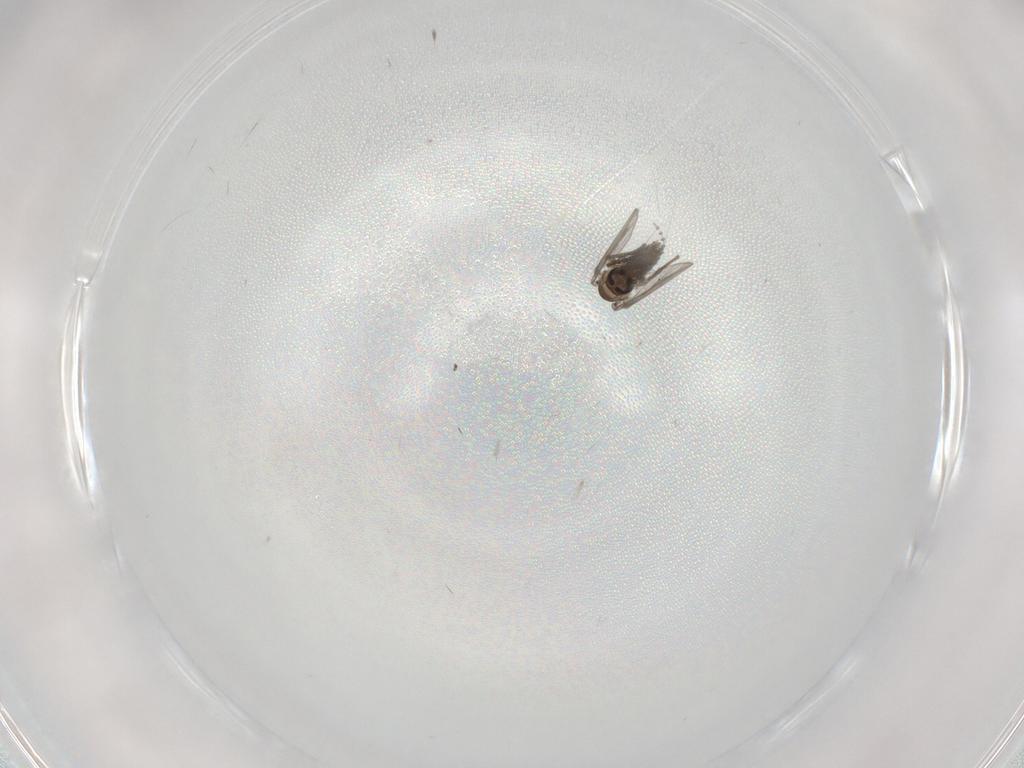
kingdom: Animalia
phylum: Arthropoda
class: Insecta
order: Diptera
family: Psychodidae
